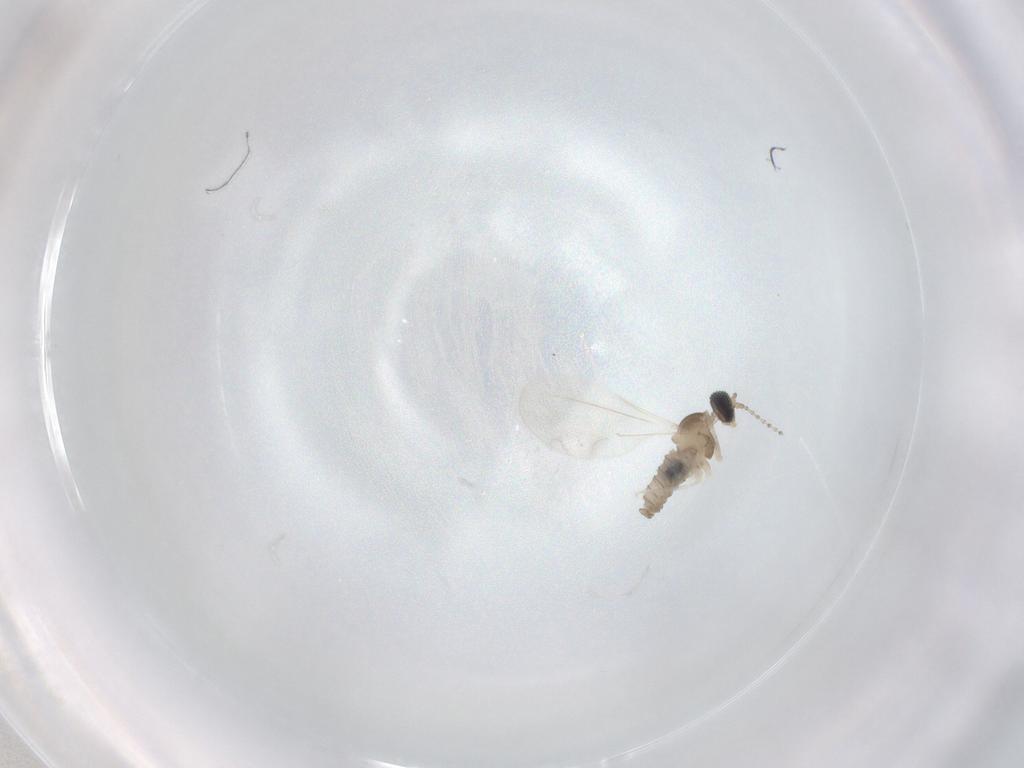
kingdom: Animalia
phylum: Arthropoda
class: Insecta
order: Diptera
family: Cecidomyiidae
